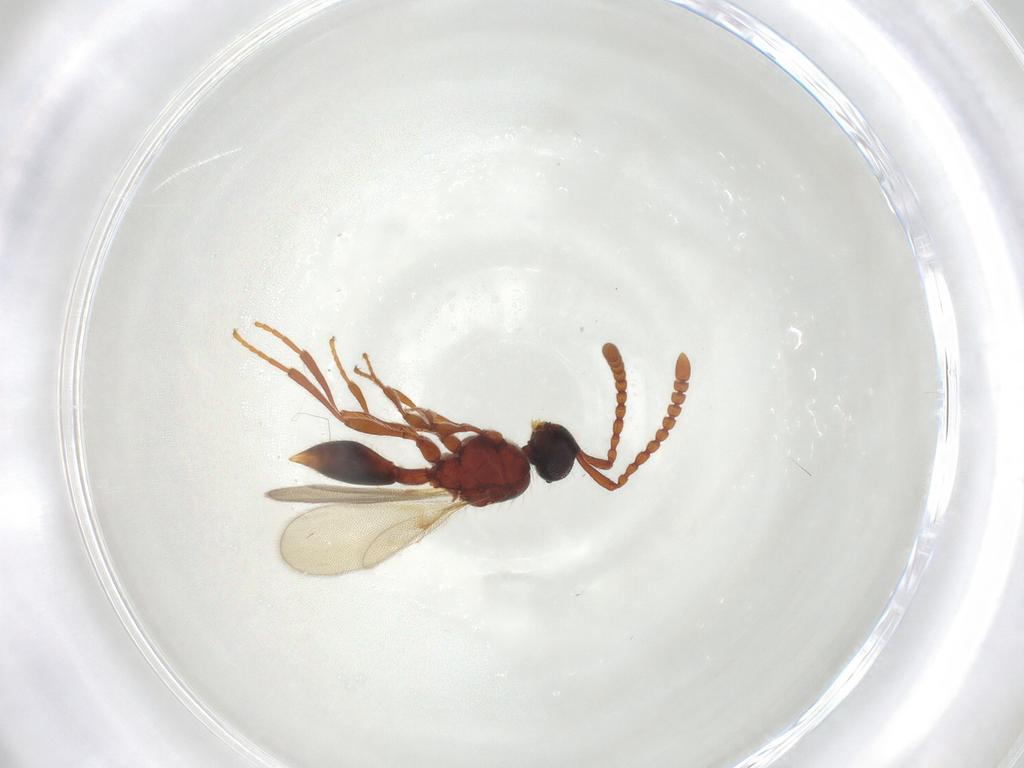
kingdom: Animalia
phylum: Arthropoda
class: Insecta
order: Hymenoptera
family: Diapriidae
